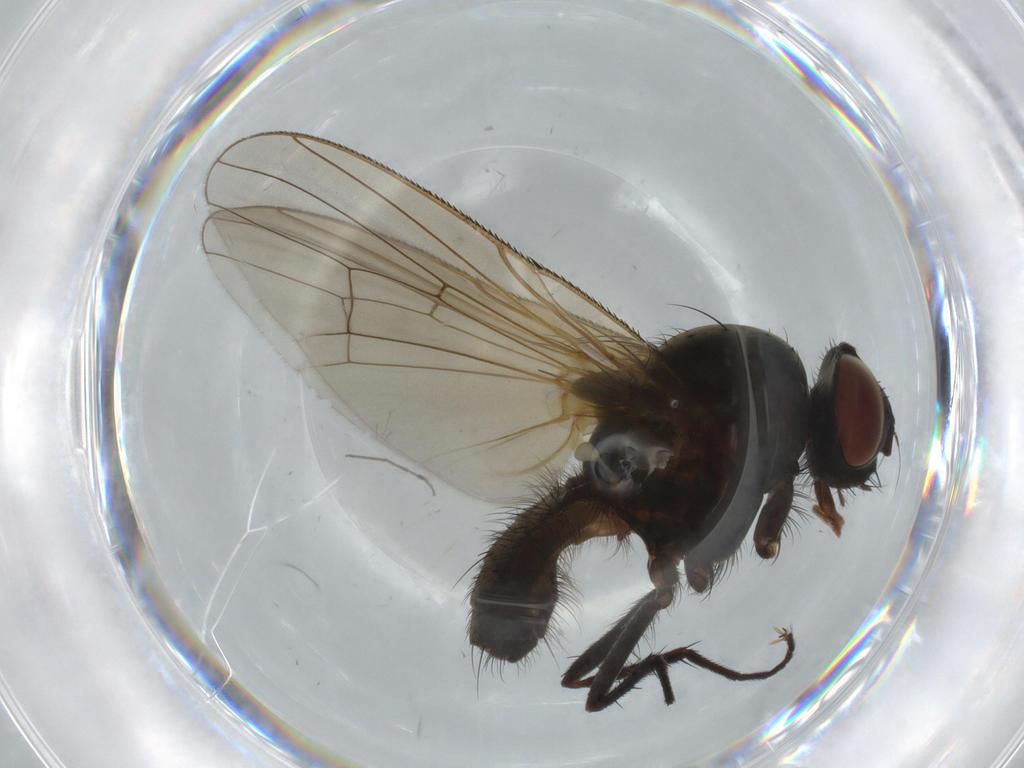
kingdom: Animalia
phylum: Arthropoda
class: Insecta
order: Diptera
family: Anthomyiidae
